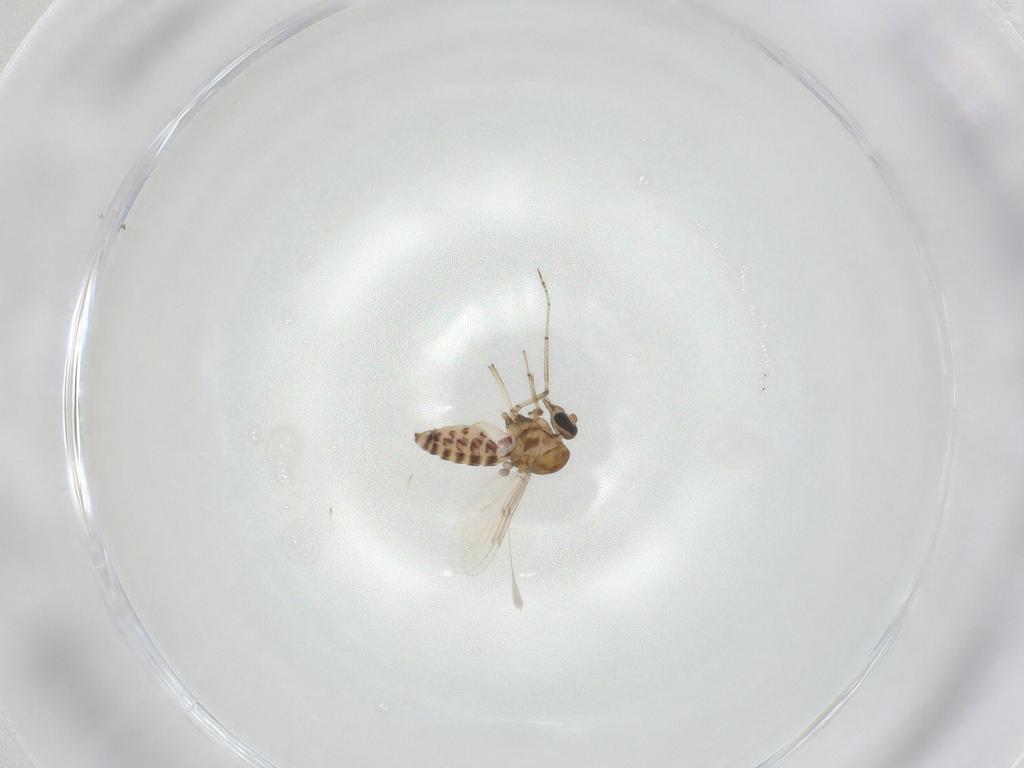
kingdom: Animalia
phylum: Arthropoda
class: Insecta
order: Diptera
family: Ceratopogonidae
